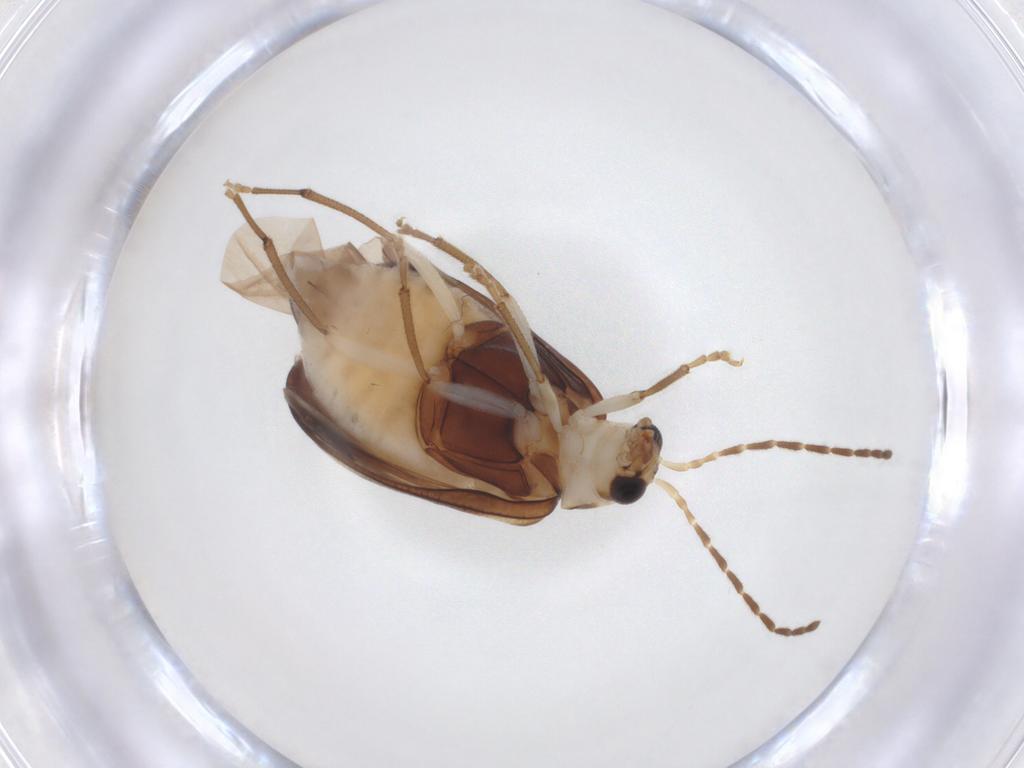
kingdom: Animalia
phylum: Arthropoda
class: Insecta
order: Coleoptera
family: Chrysomelidae
